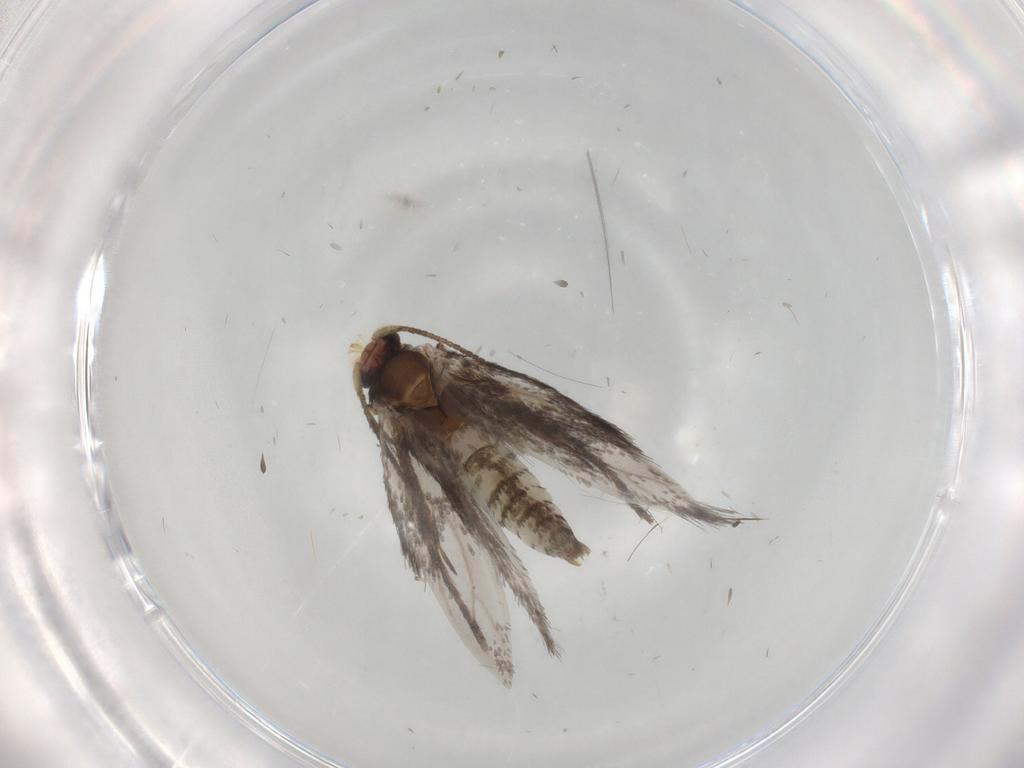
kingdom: Animalia
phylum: Arthropoda
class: Insecta
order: Lepidoptera
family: Nepticulidae
